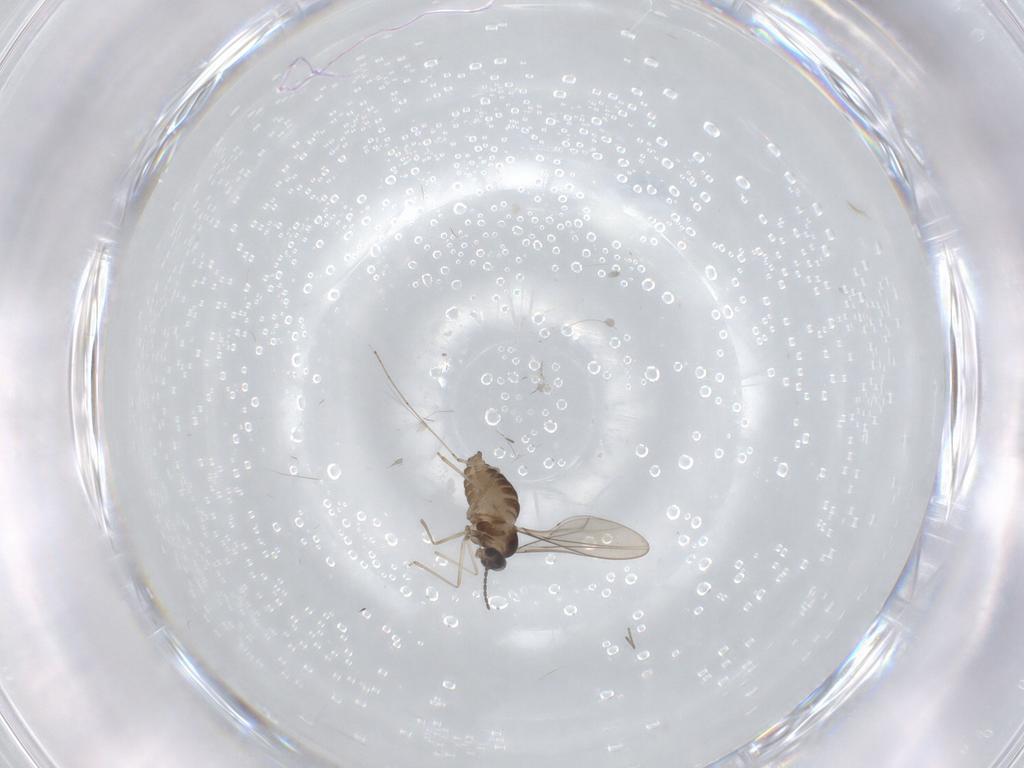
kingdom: Animalia
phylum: Arthropoda
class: Insecta
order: Diptera
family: Cecidomyiidae
